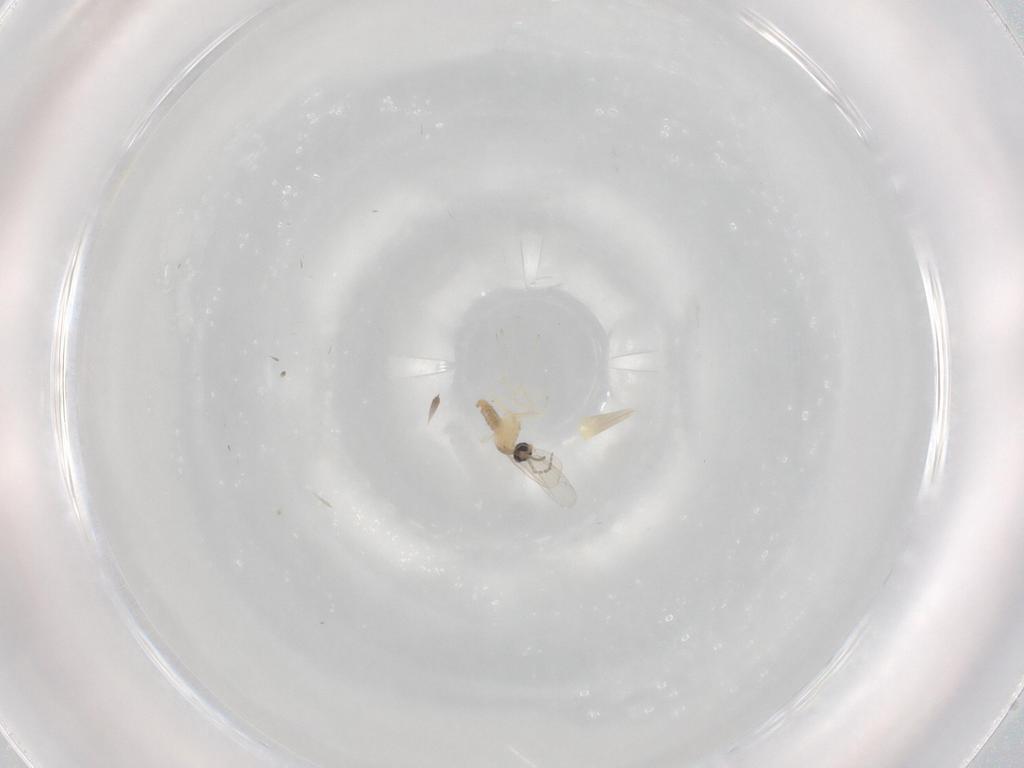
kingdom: Animalia
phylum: Arthropoda
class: Insecta
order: Diptera
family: Cecidomyiidae
